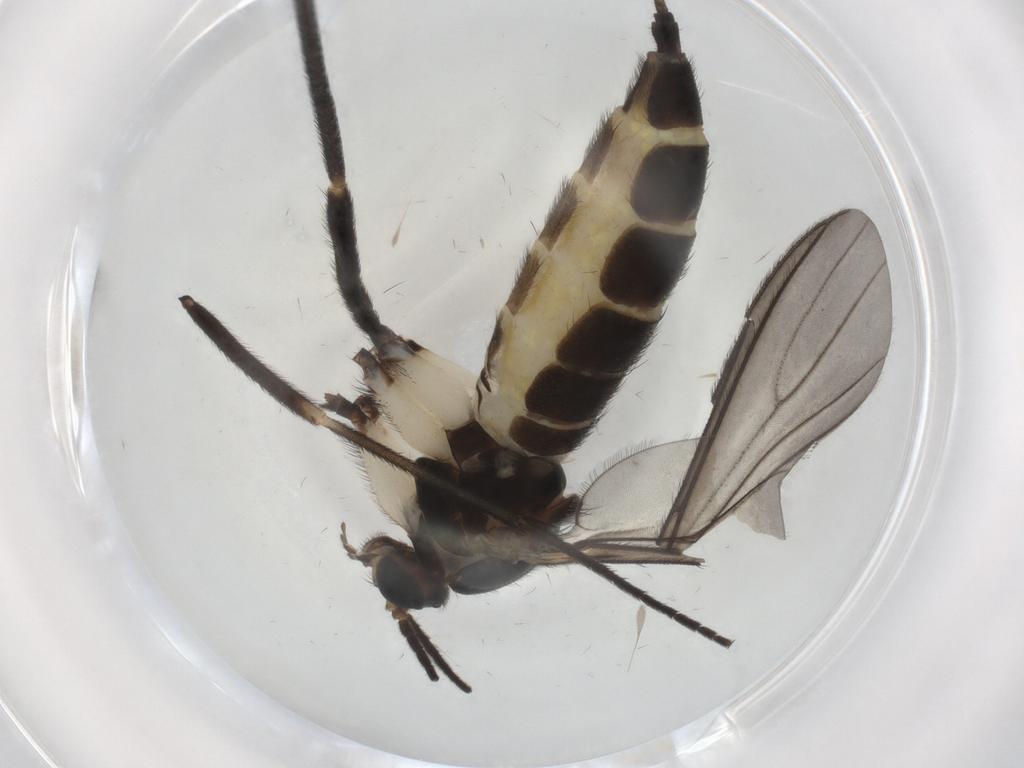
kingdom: Animalia
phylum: Arthropoda
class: Insecta
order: Diptera
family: Sciaridae
